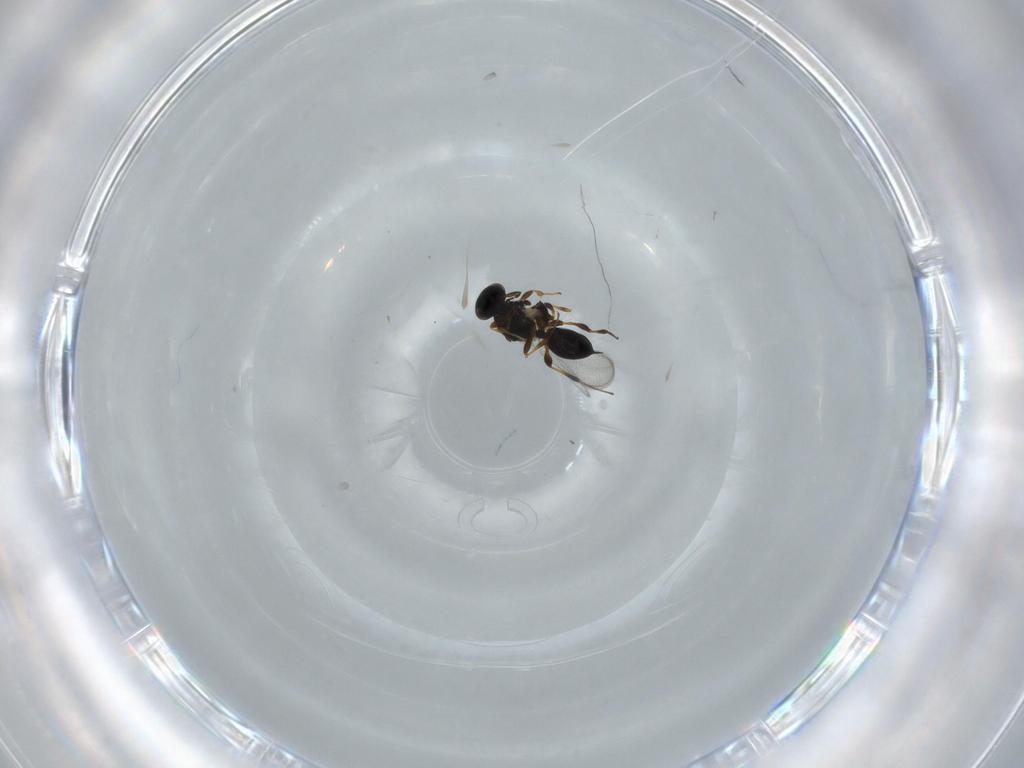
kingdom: Animalia
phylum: Arthropoda
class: Insecta
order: Hymenoptera
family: Platygastridae
